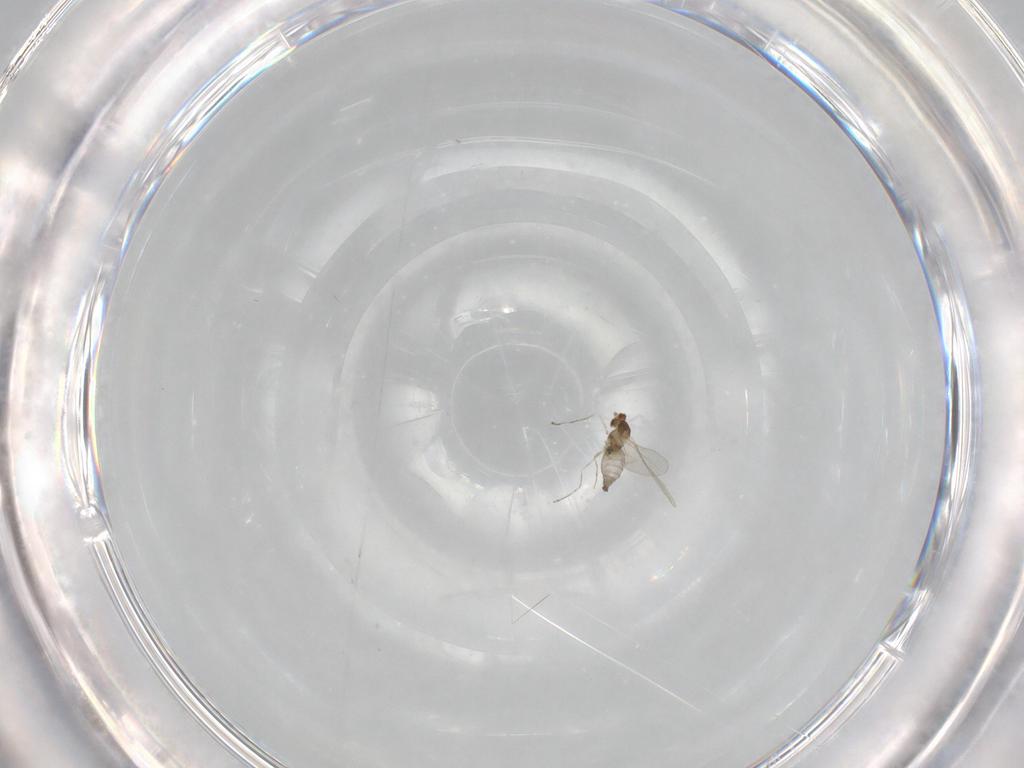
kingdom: Animalia
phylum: Arthropoda
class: Insecta
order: Diptera
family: Cecidomyiidae
